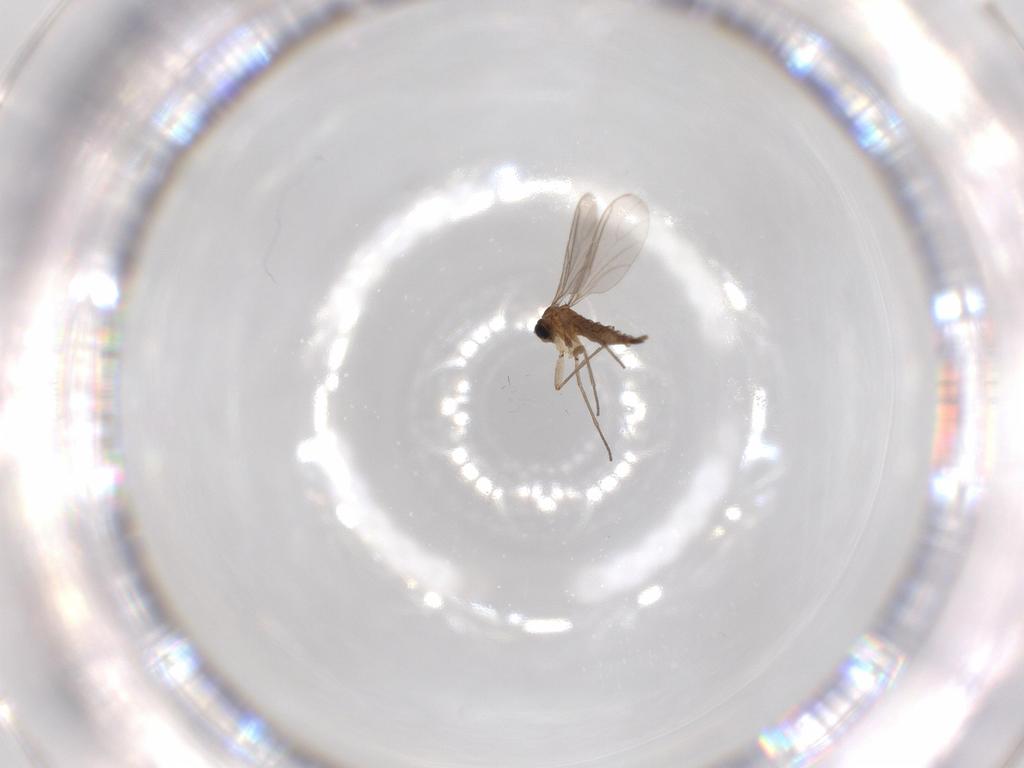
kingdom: Animalia
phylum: Arthropoda
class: Insecta
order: Diptera
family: Sciaridae
